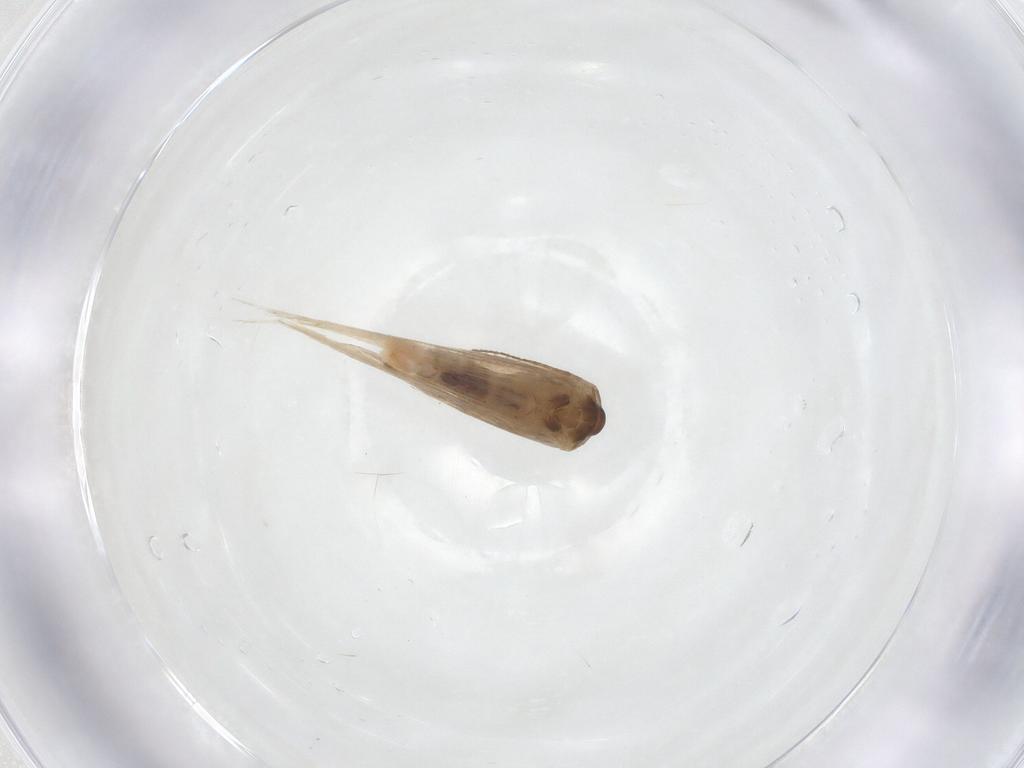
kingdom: Animalia
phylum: Arthropoda
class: Insecta
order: Lepidoptera
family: Gelechiidae
